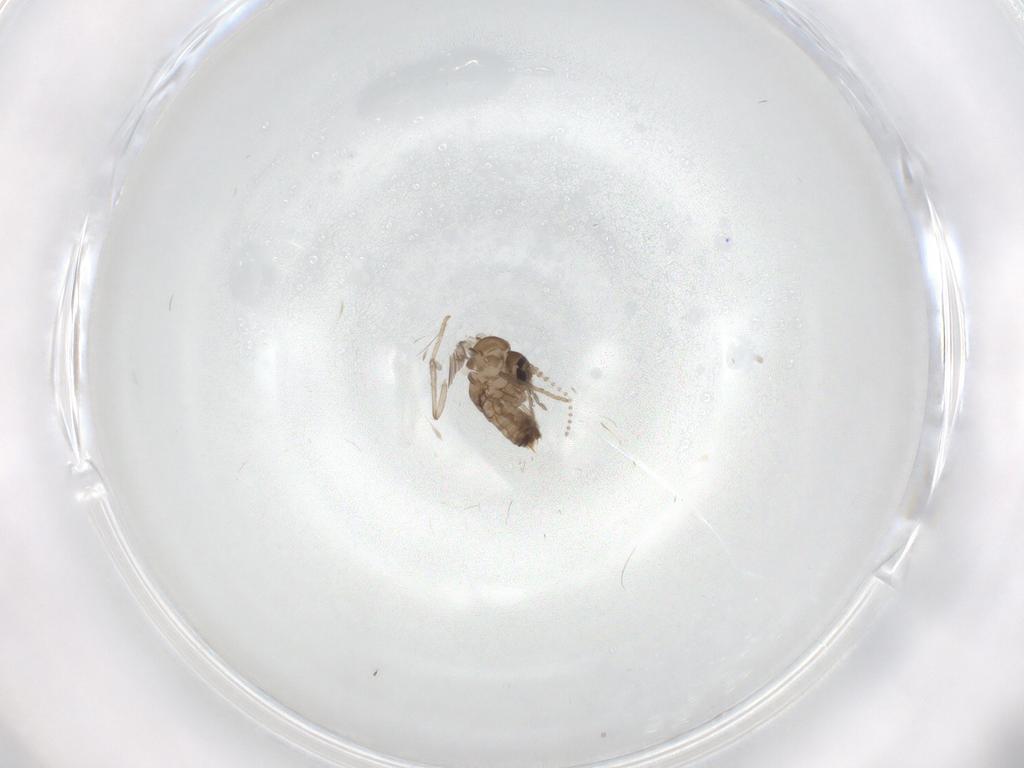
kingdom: Animalia
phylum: Arthropoda
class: Insecta
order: Diptera
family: Psychodidae
